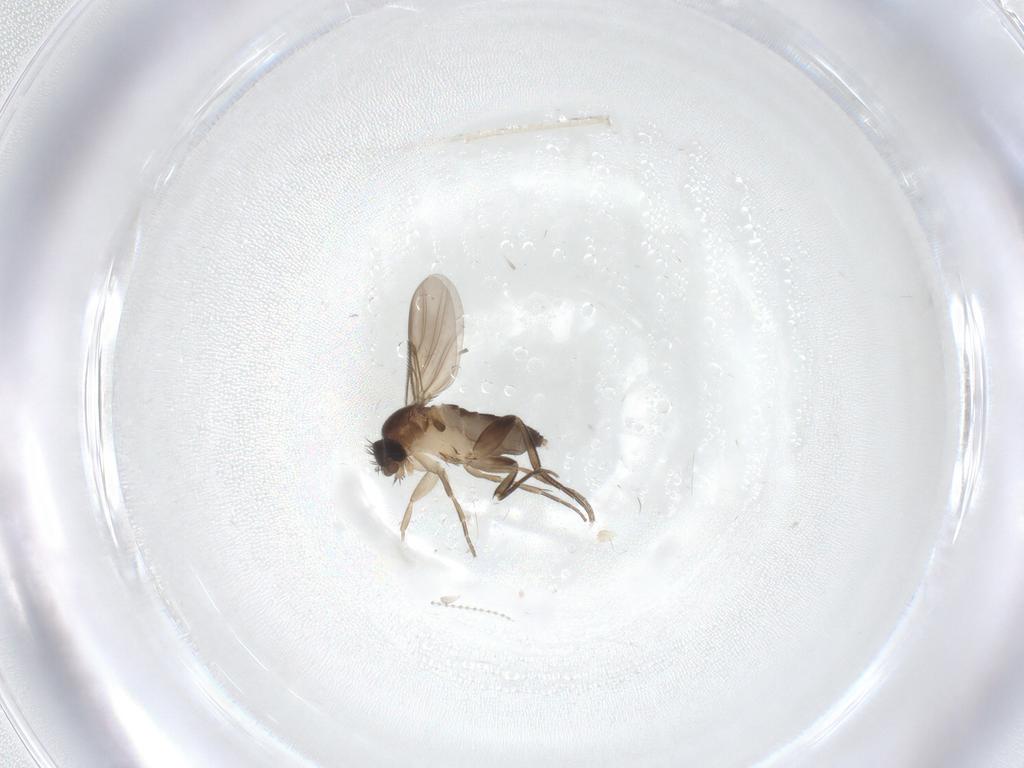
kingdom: Animalia
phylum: Arthropoda
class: Insecta
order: Diptera
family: Phoridae
